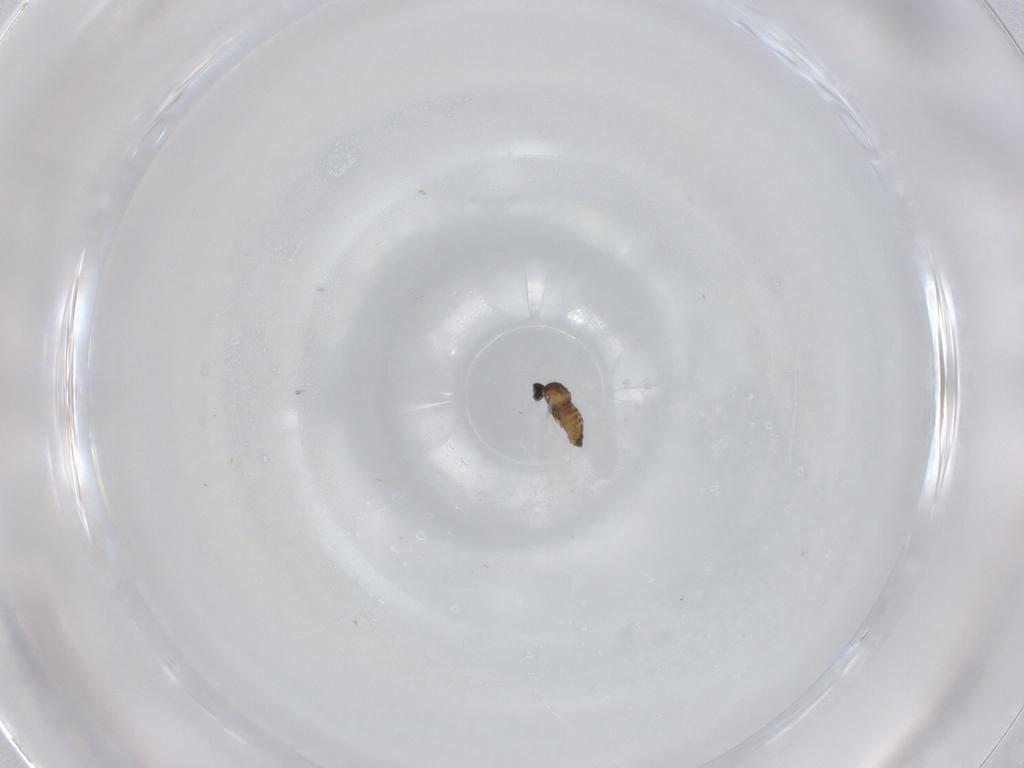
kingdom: Animalia
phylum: Arthropoda
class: Insecta
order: Diptera
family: Cecidomyiidae
